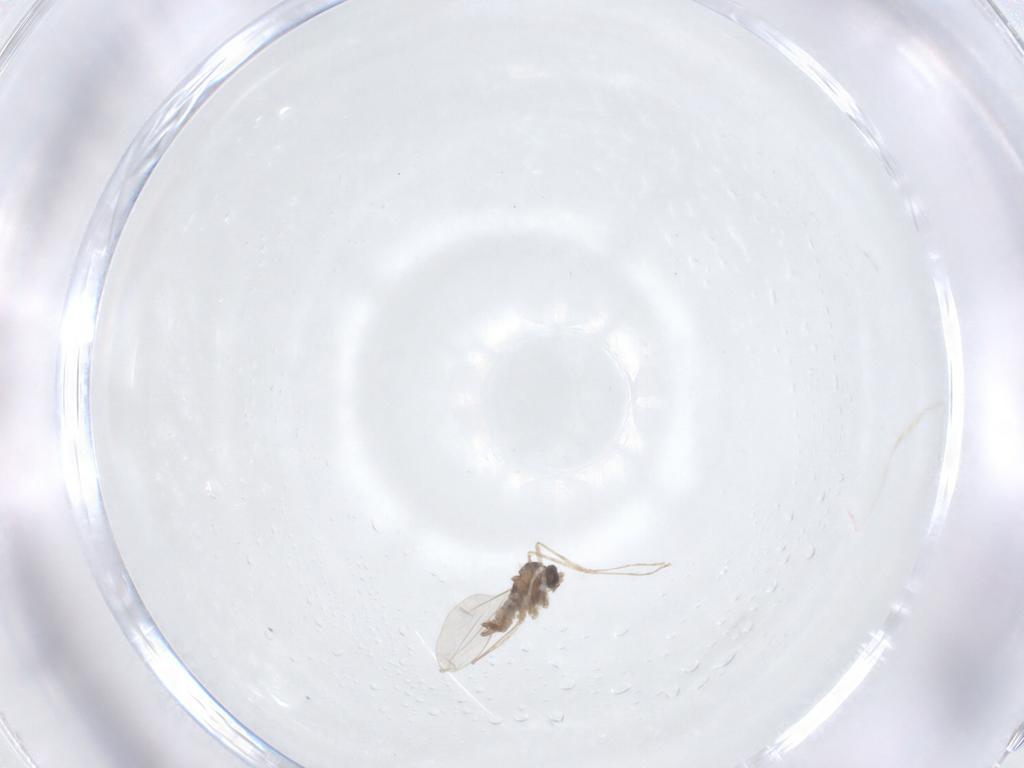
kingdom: Animalia
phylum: Arthropoda
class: Insecta
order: Diptera
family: Cecidomyiidae
